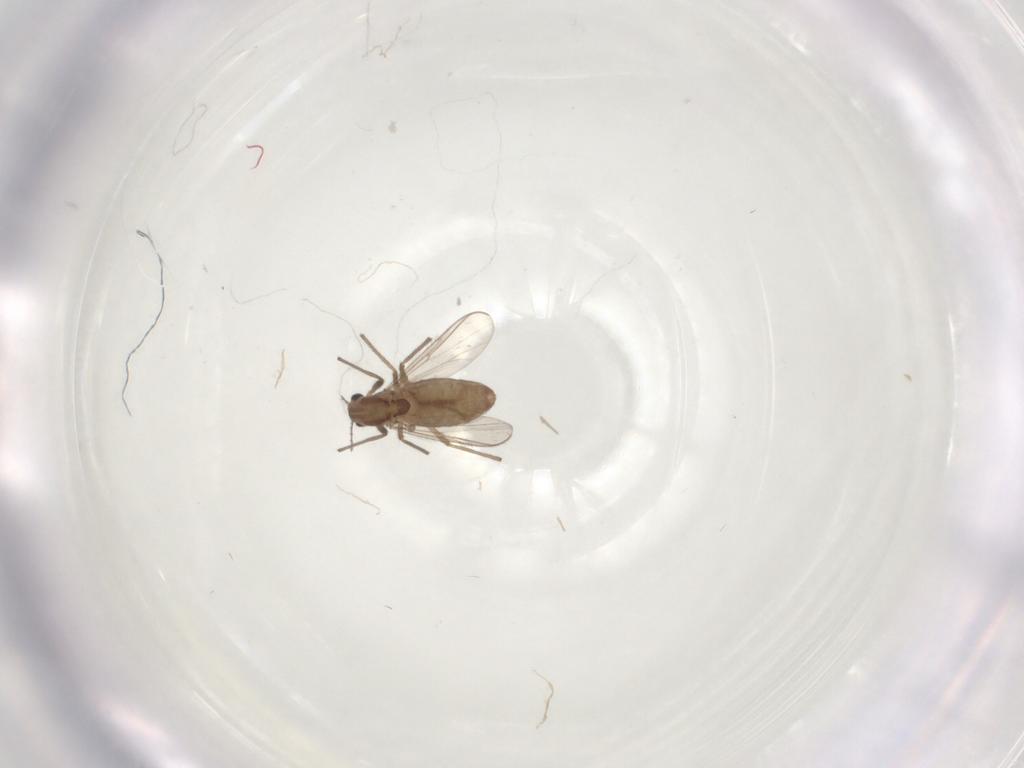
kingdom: Animalia
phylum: Arthropoda
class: Insecta
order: Diptera
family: Chironomidae
